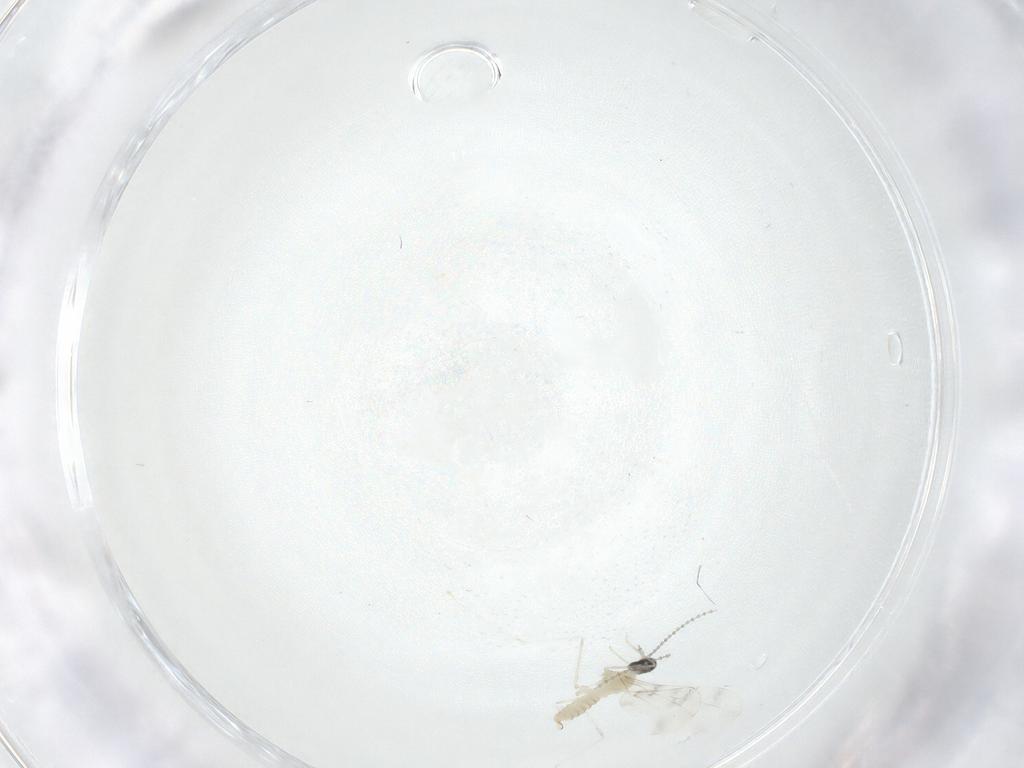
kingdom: Animalia
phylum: Arthropoda
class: Insecta
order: Diptera
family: Cecidomyiidae
